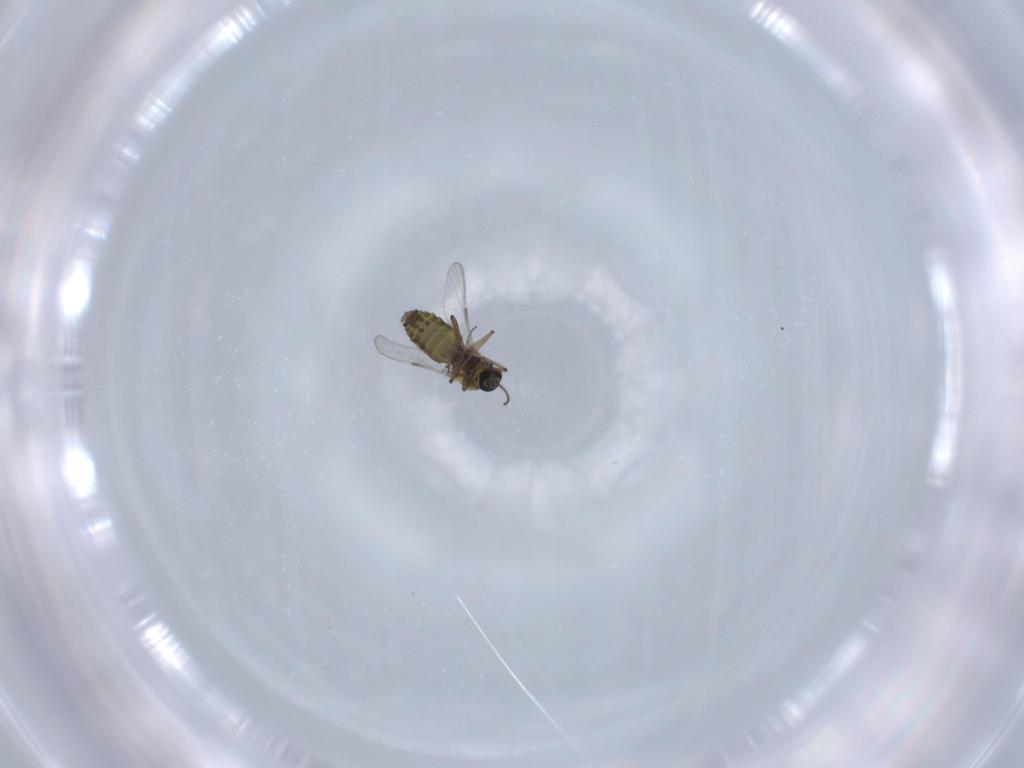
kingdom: Animalia
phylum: Arthropoda
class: Insecta
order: Diptera
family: Ceratopogonidae
